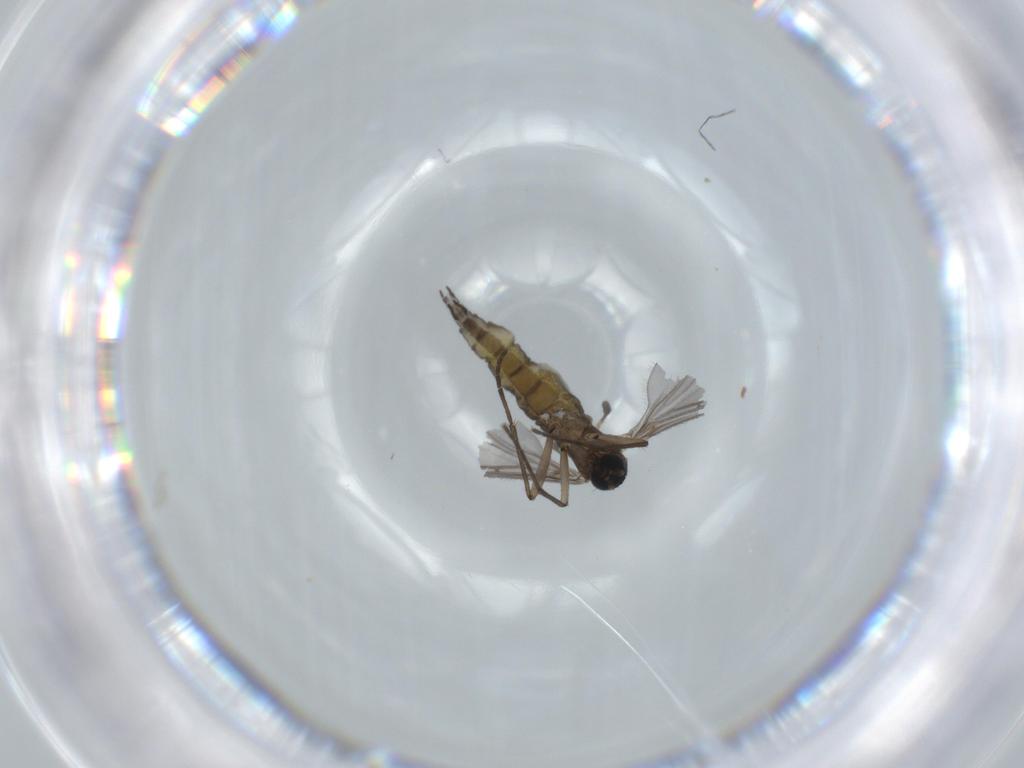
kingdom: Animalia
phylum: Arthropoda
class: Insecta
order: Diptera
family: Sciaridae
